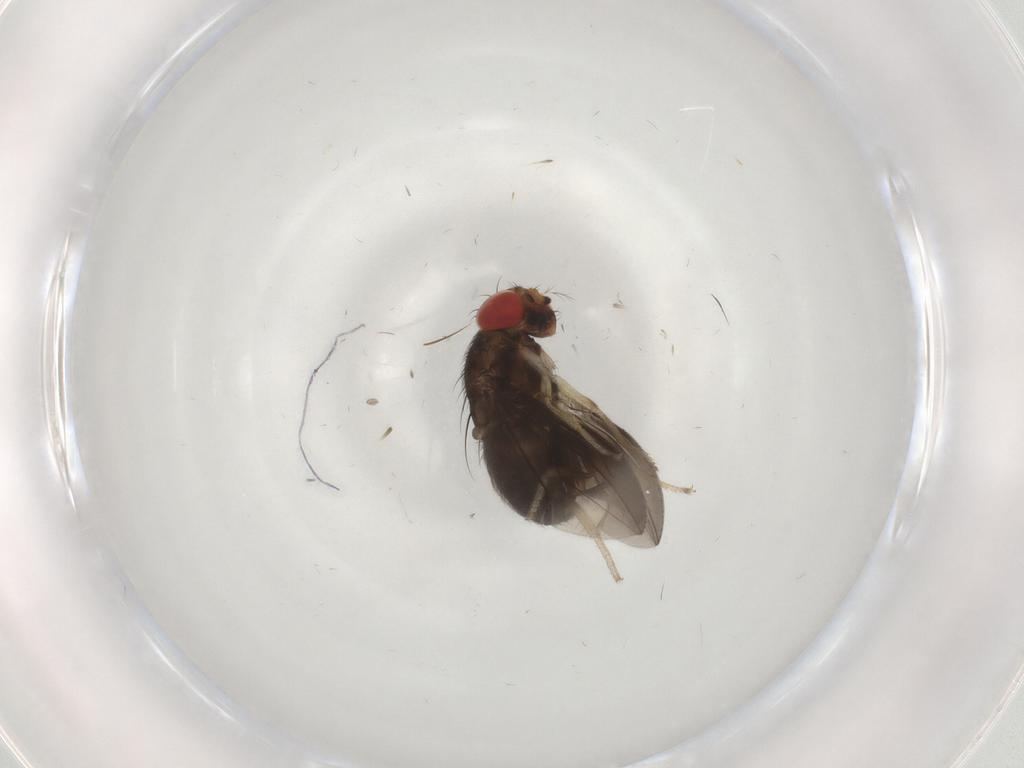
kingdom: Animalia
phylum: Arthropoda
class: Insecta
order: Diptera
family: Drosophilidae
